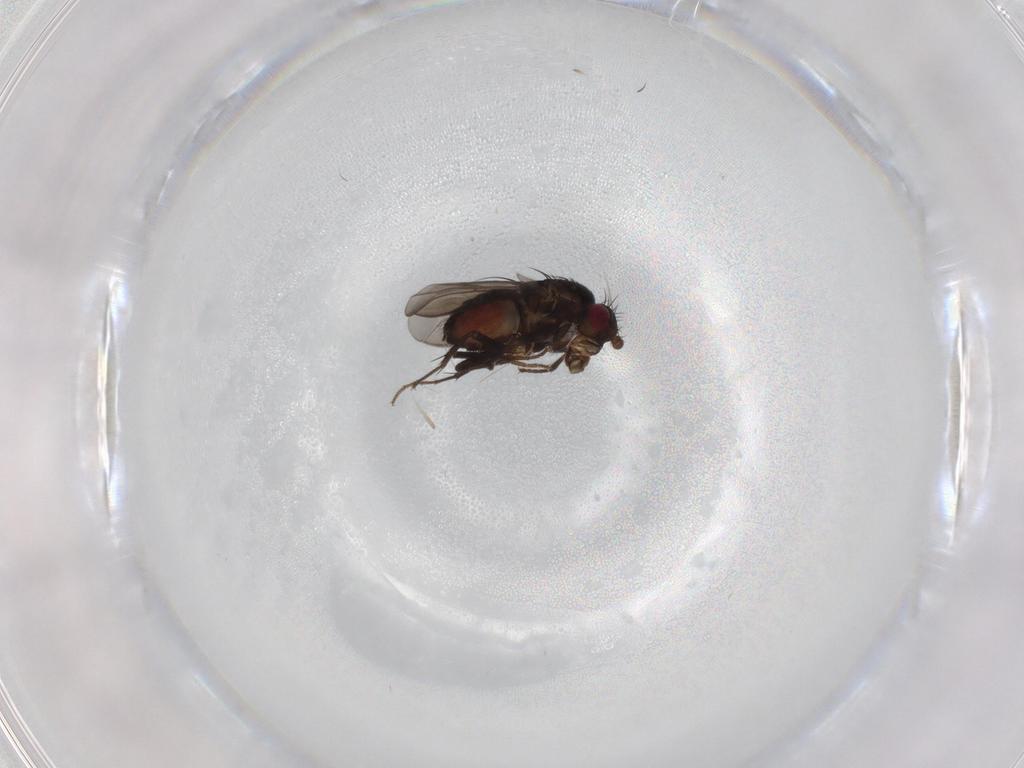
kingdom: Animalia
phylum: Arthropoda
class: Insecta
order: Diptera
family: Sphaeroceridae
